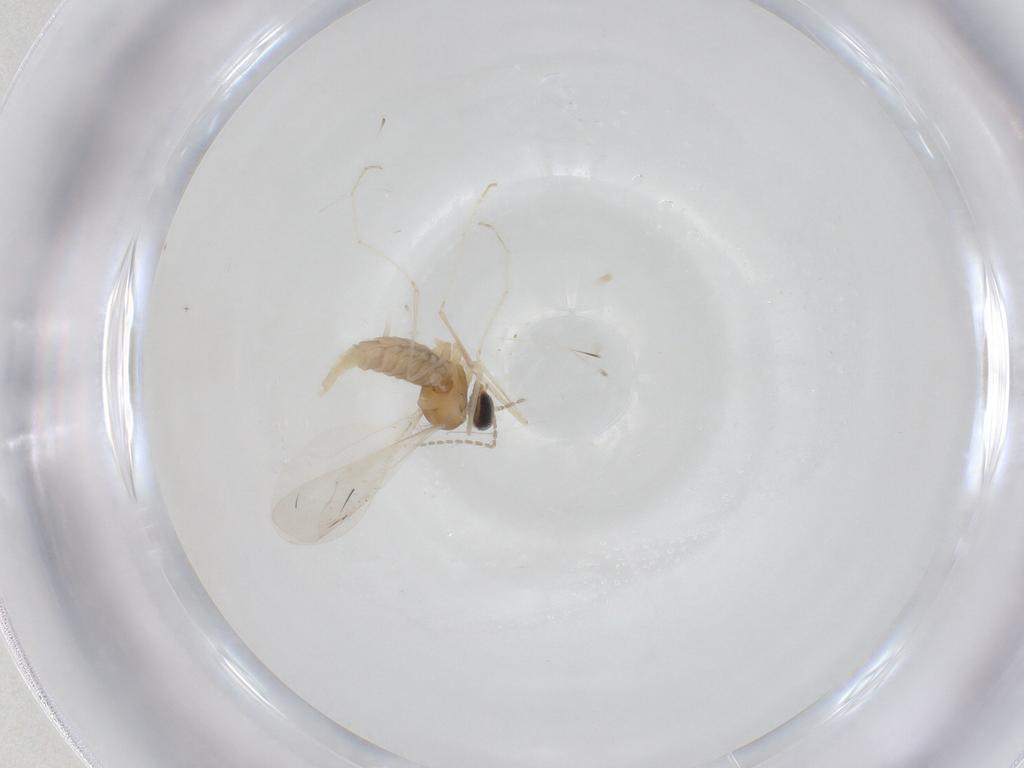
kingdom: Animalia
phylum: Arthropoda
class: Insecta
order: Diptera
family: Cecidomyiidae
